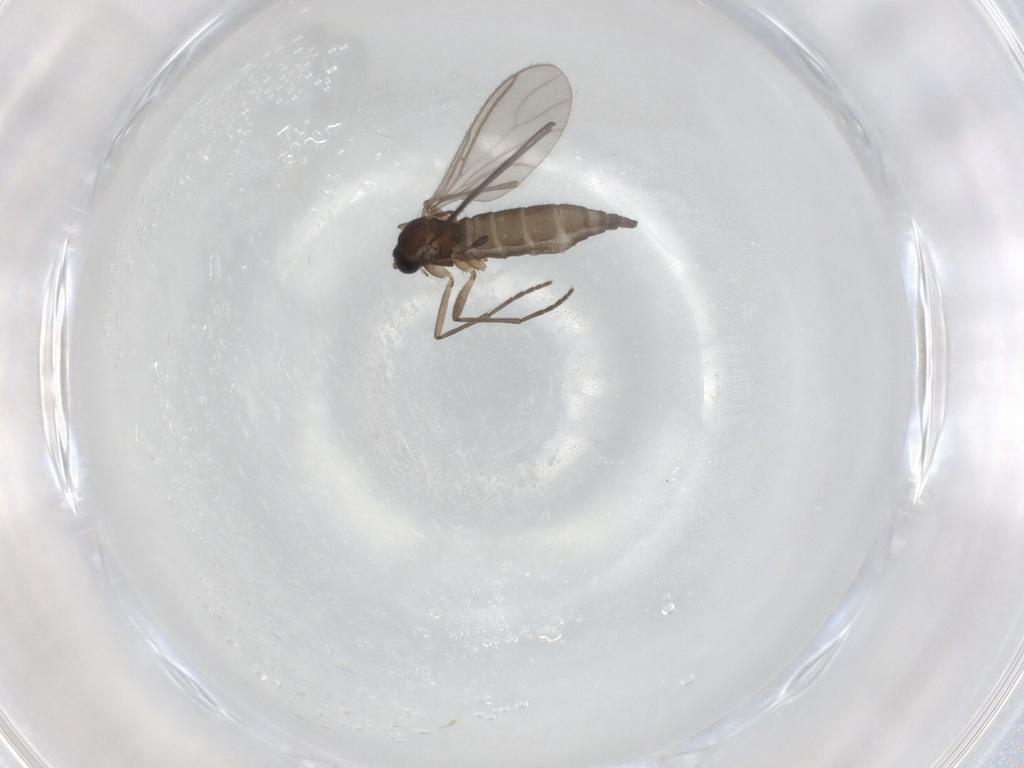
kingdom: Animalia
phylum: Arthropoda
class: Insecta
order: Diptera
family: Sciaridae
